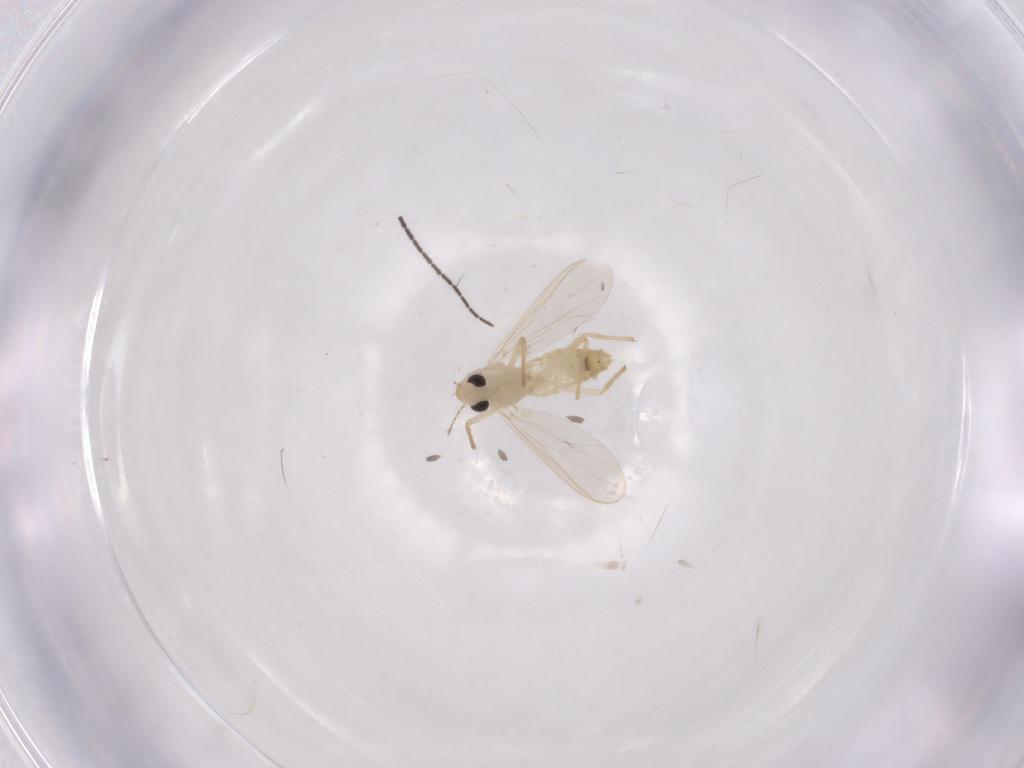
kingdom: Animalia
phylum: Arthropoda
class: Insecta
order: Diptera
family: Chironomidae
